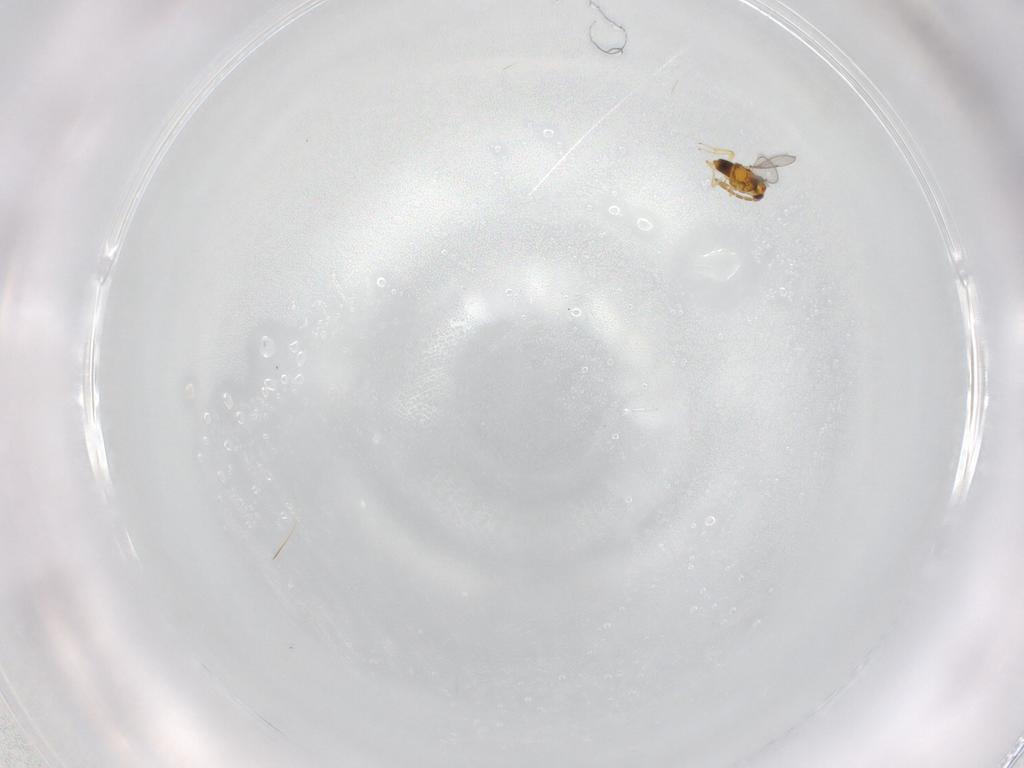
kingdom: Animalia
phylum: Arthropoda
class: Insecta
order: Hymenoptera
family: Aphelinidae
